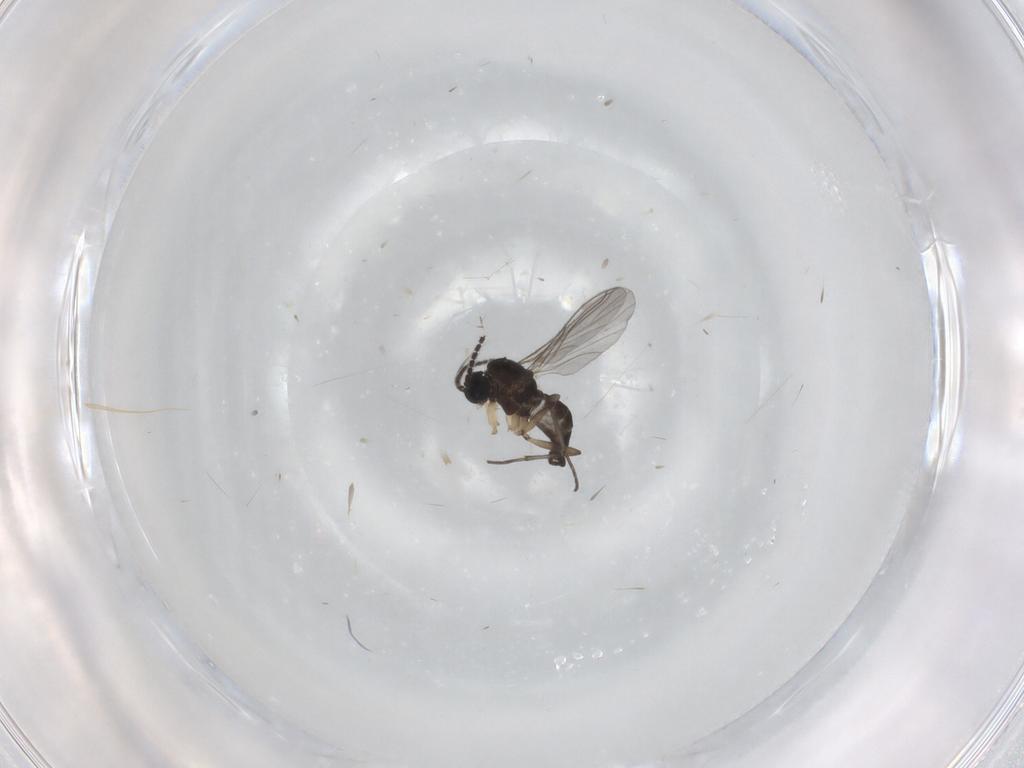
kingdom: Animalia
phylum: Arthropoda
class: Insecta
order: Diptera
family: Sciaridae
